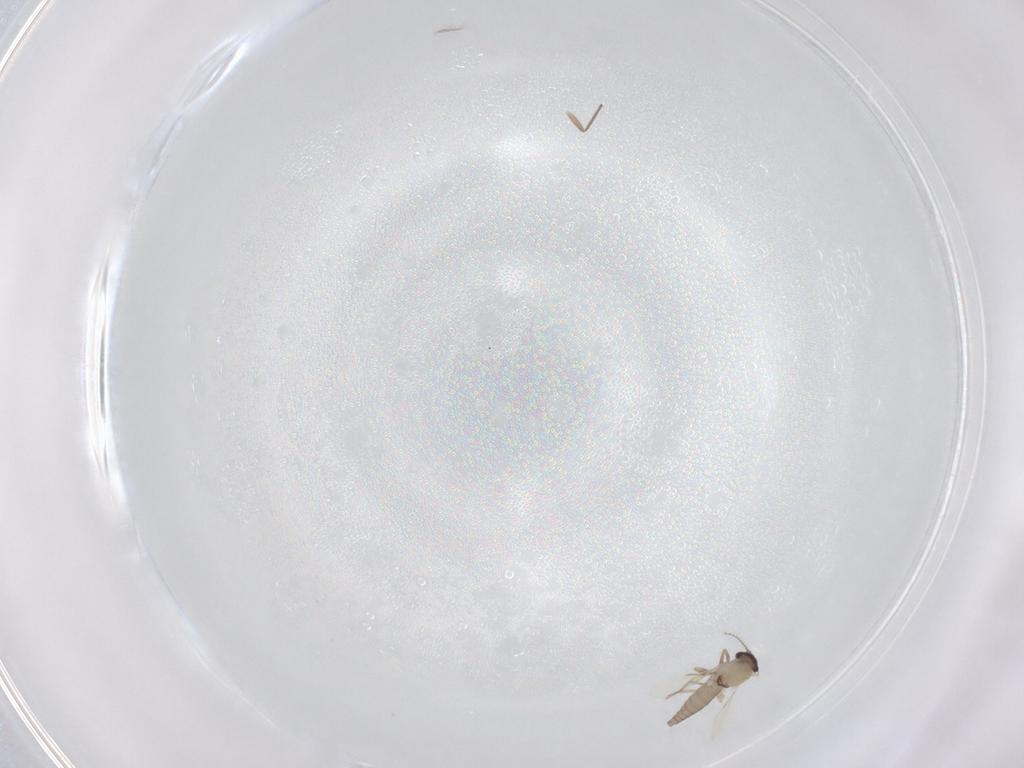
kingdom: Animalia
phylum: Arthropoda
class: Insecta
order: Diptera
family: Ceratopogonidae
